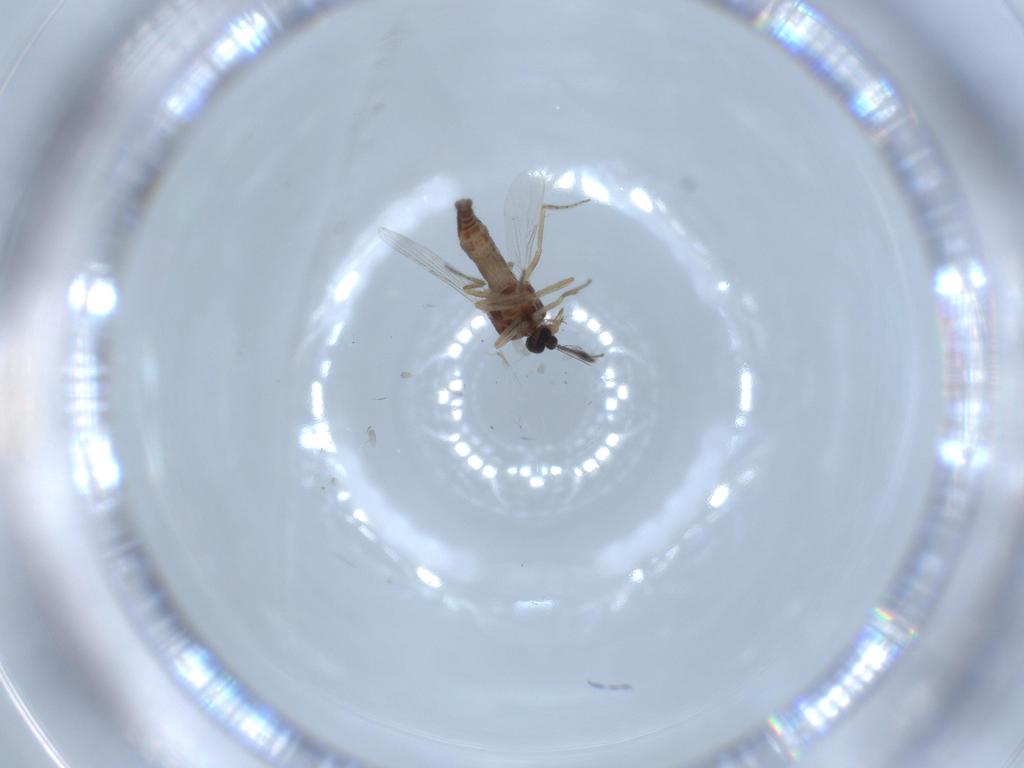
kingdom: Animalia
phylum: Arthropoda
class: Insecta
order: Diptera
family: Ceratopogonidae
